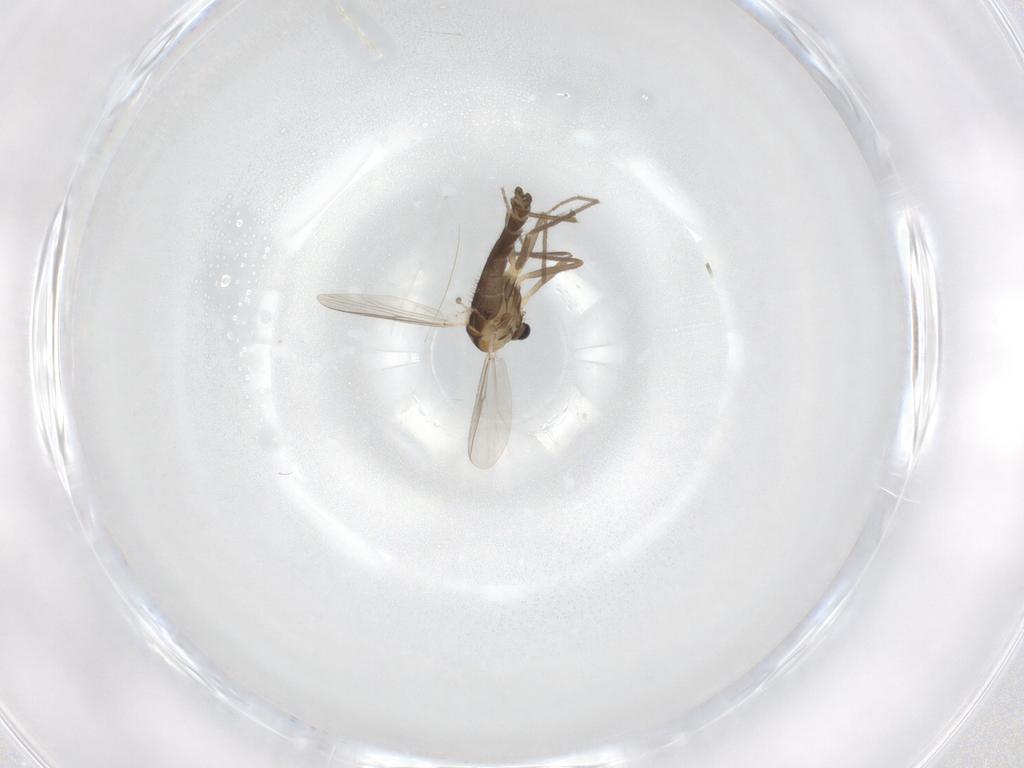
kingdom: Animalia
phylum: Arthropoda
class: Insecta
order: Diptera
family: Chironomidae
